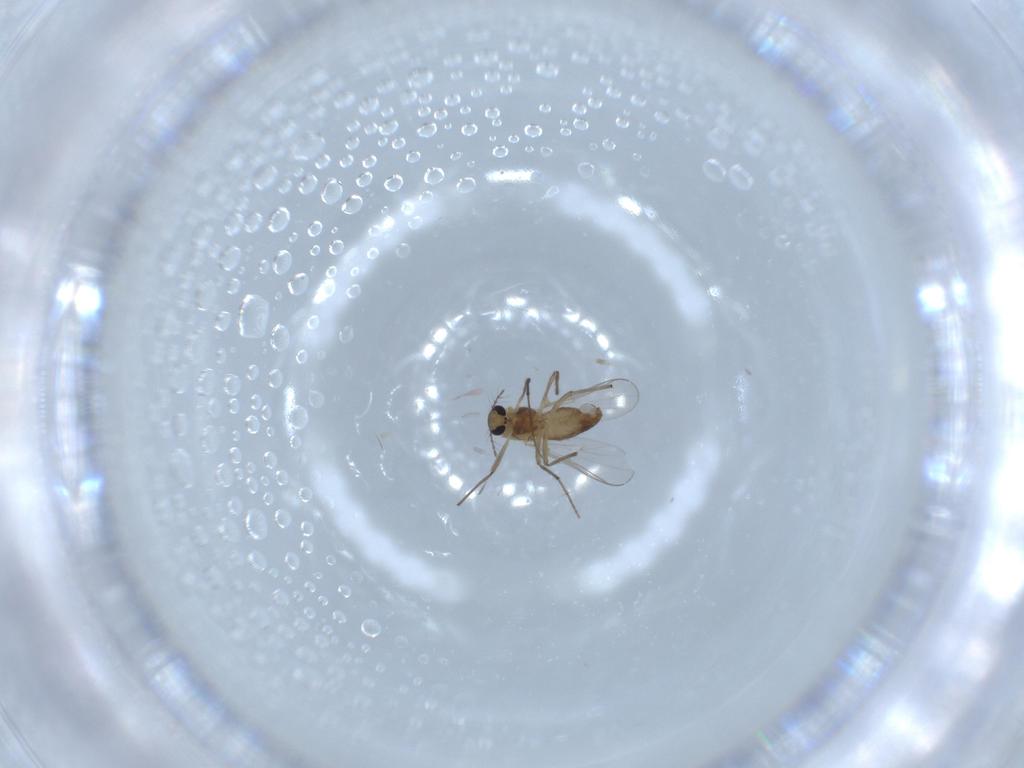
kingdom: Animalia
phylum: Arthropoda
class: Insecta
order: Diptera
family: Chironomidae
